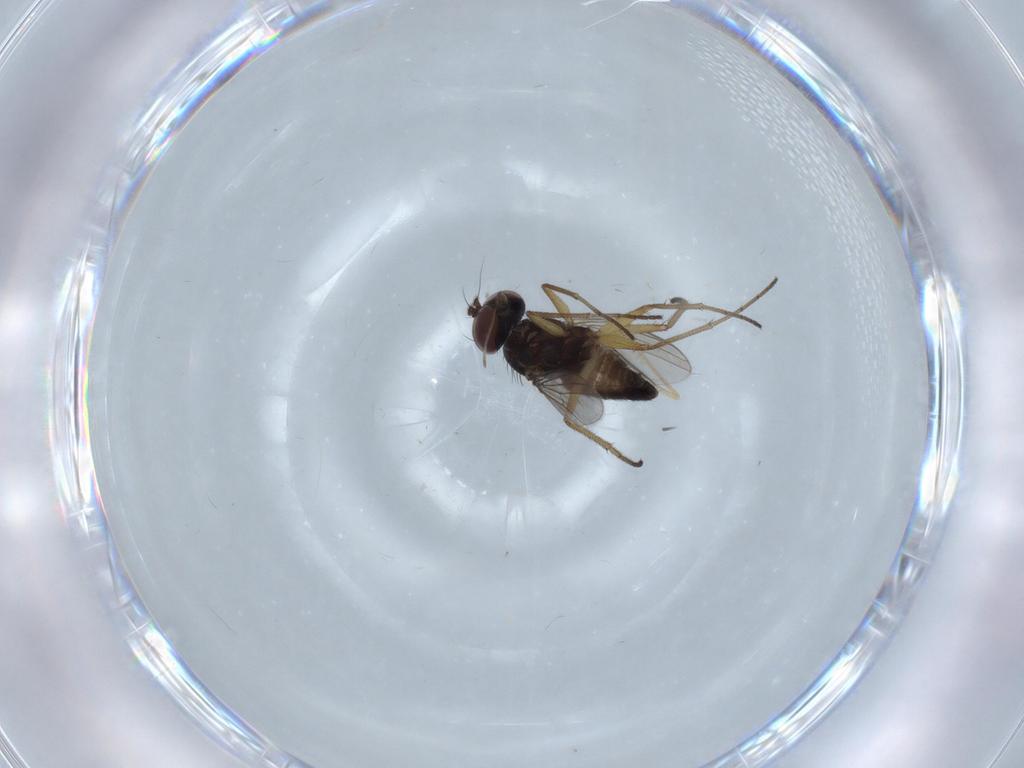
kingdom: Animalia
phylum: Arthropoda
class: Insecta
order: Diptera
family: Dolichopodidae
